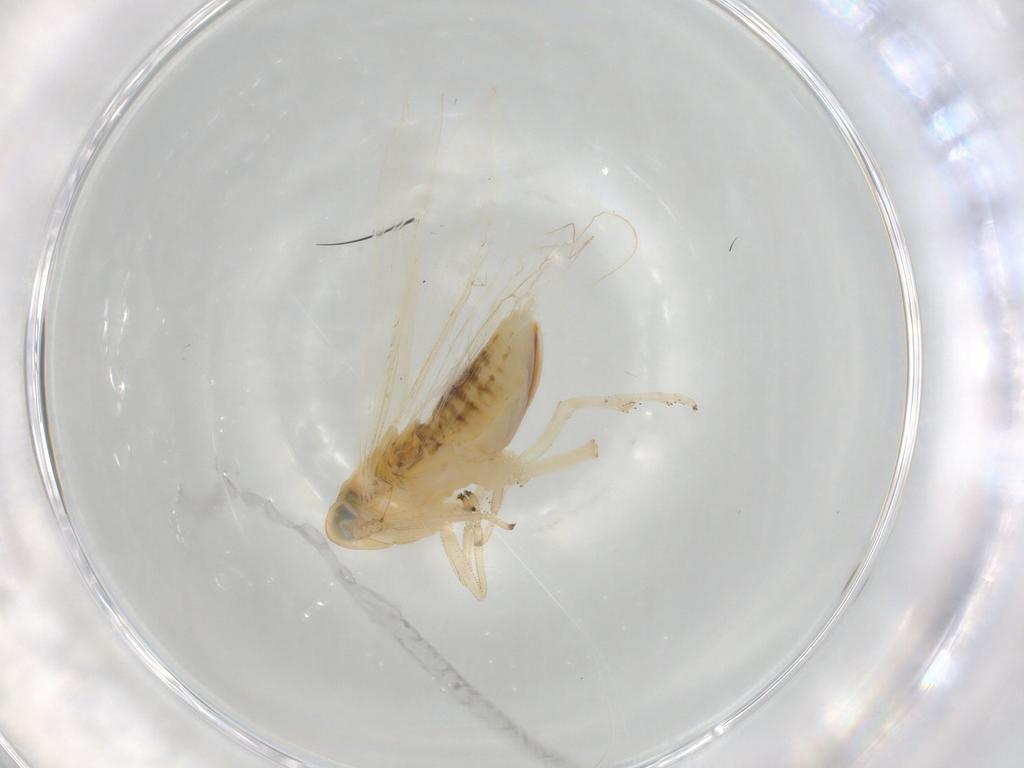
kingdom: Animalia
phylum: Arthropoda
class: Insecta
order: Hemiptera
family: Delphacidae
